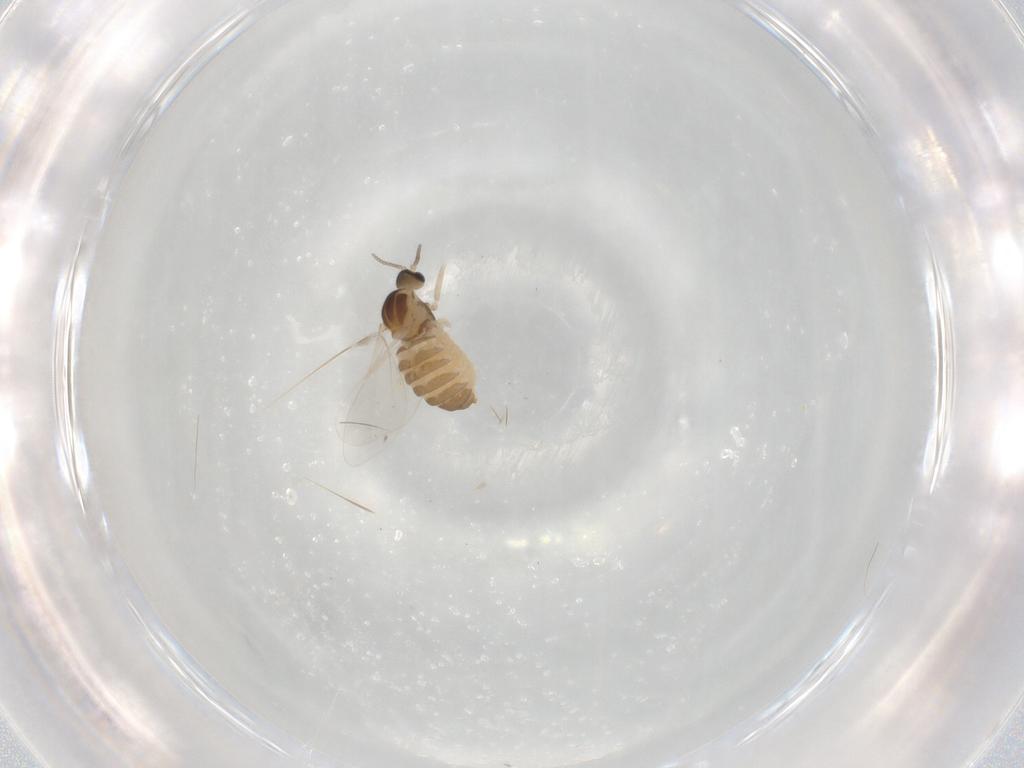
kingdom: Animalia
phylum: Arthropoda
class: Insecta
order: Diptera
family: Cecidomyiidae
